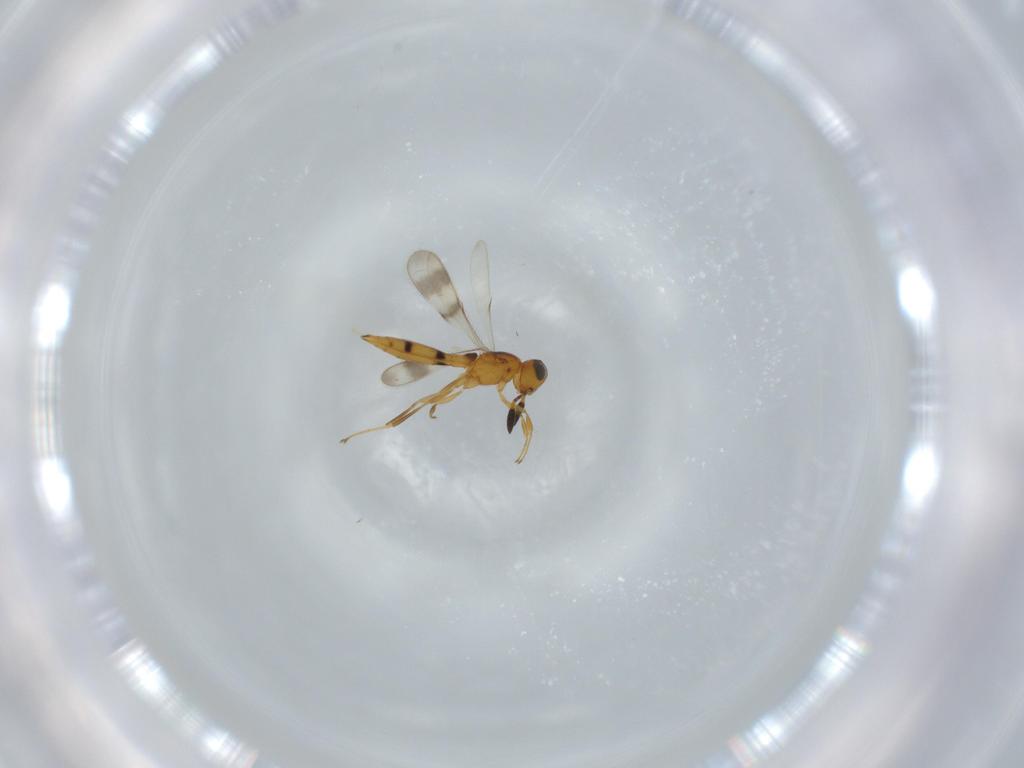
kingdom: Animalia
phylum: Arthropoda
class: Insecta
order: Hymenoptera
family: Scelionidae
